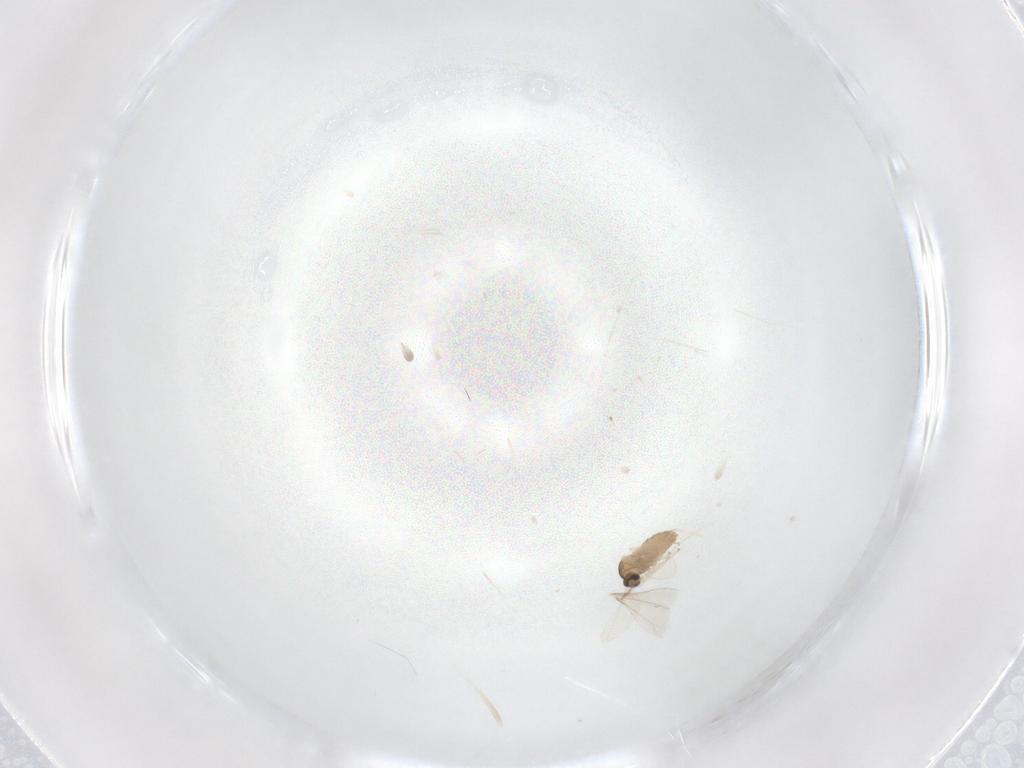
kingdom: Animalia
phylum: Arthropoda
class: Insecta
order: Diptera
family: Cecidomyiidae
